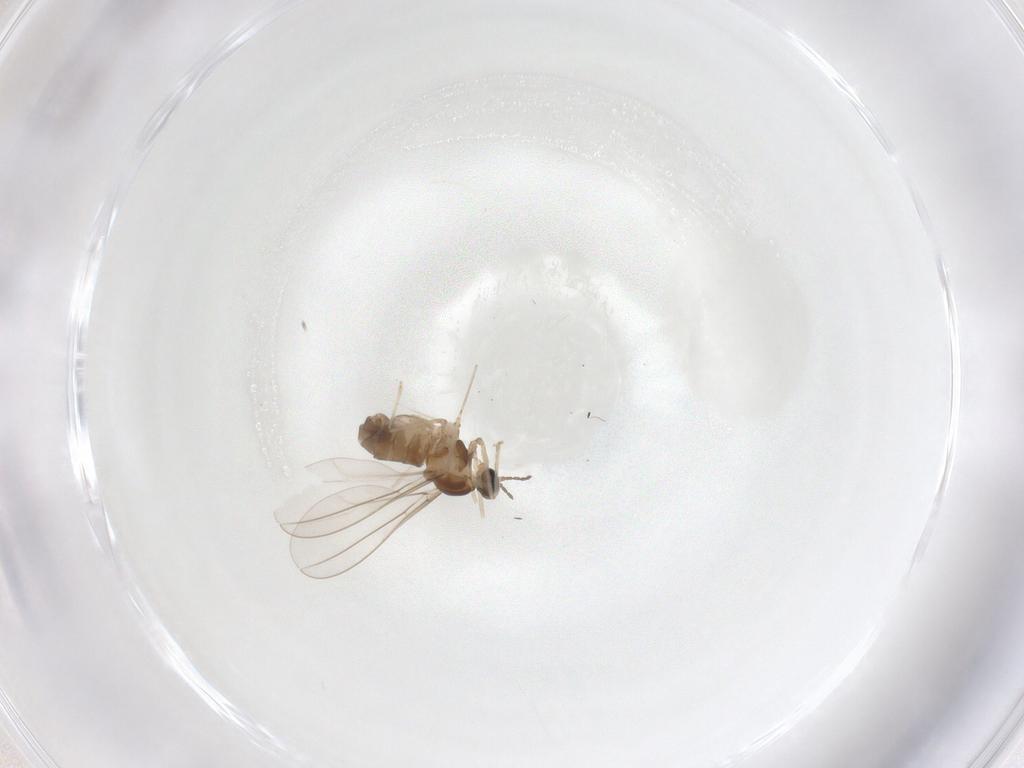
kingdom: Animalia
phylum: Arthropoda
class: Insecta
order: Diptera
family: Cecidomyiidae
